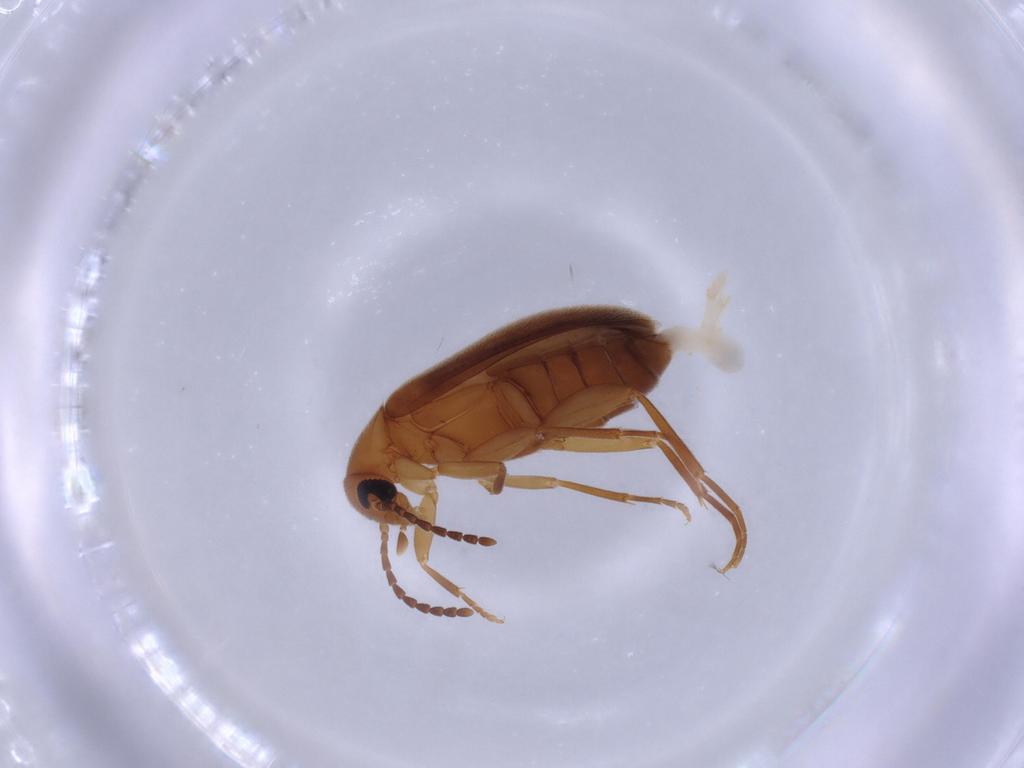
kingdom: Animalia
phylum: Arthropoda
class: Insecta
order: Coleoptera
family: Scraptiidae
